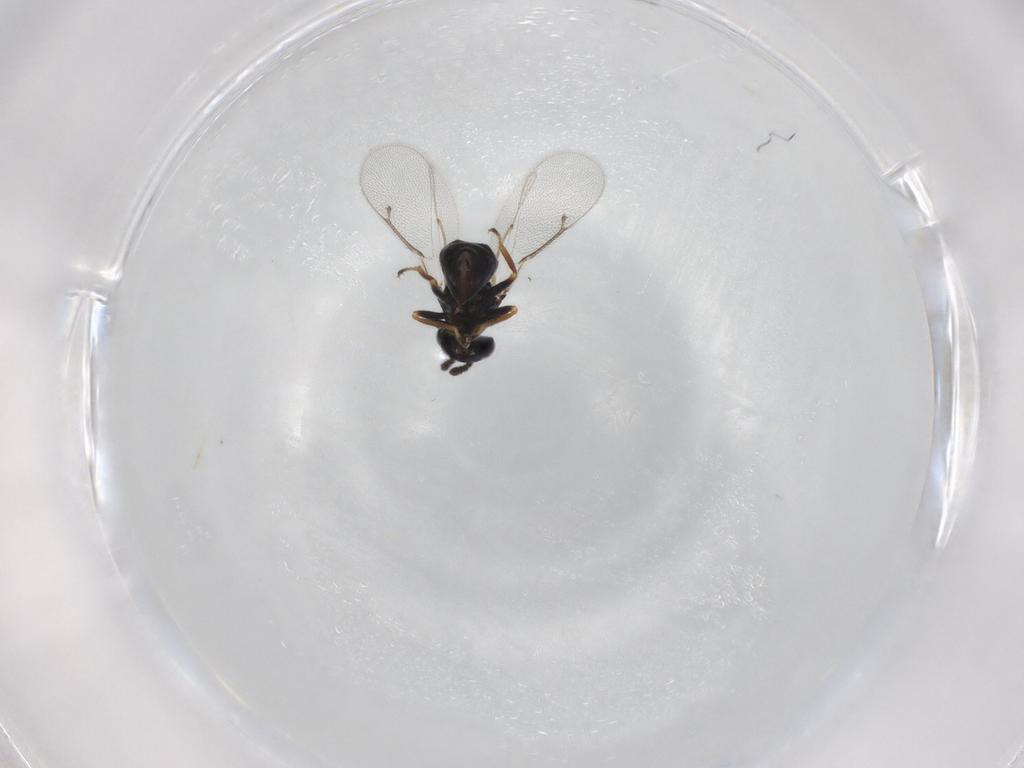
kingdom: Animalia
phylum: Arthropoda
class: Insecta
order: Hymenoptera
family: Eulophidae
